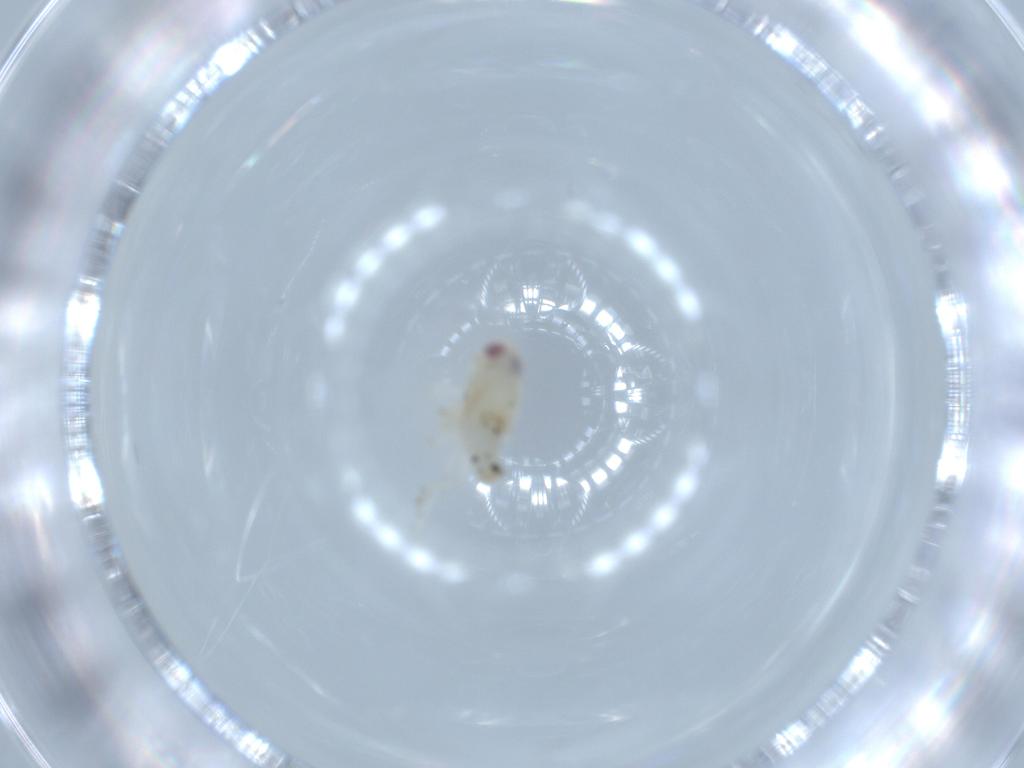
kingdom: Animalia
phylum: Arthropoda
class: Insecta
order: Hemiptera
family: Nogodinidae
